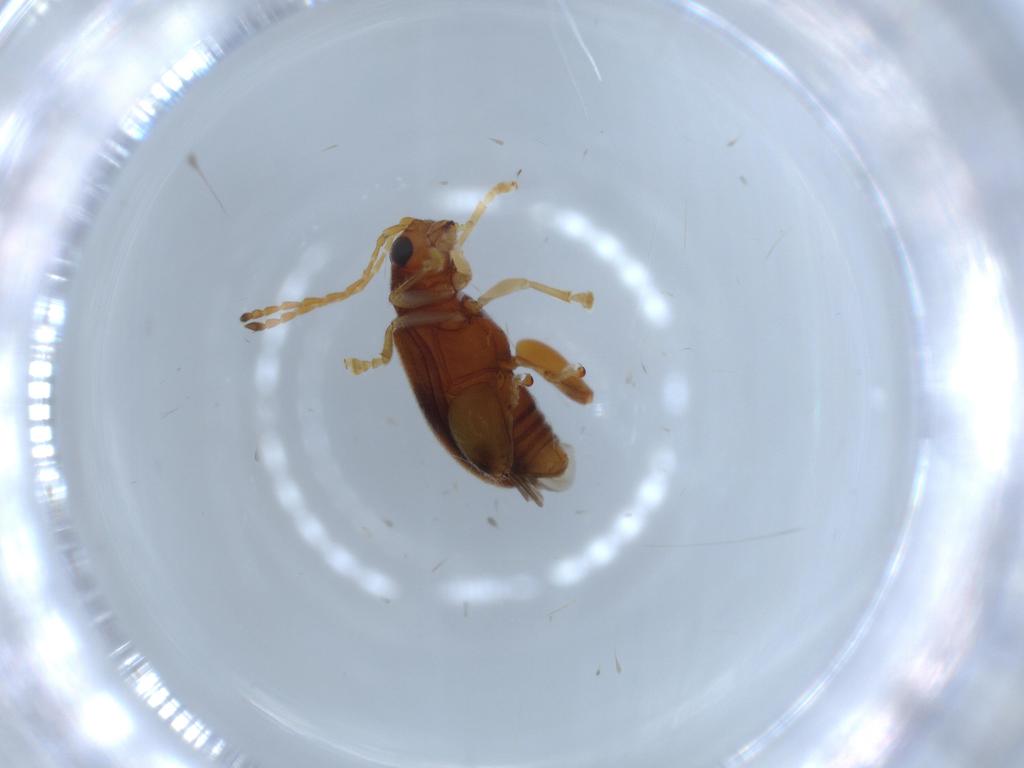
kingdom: Animalia
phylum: Arthropoda
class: Insecta
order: Coleoptera
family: Chrysomelidae
